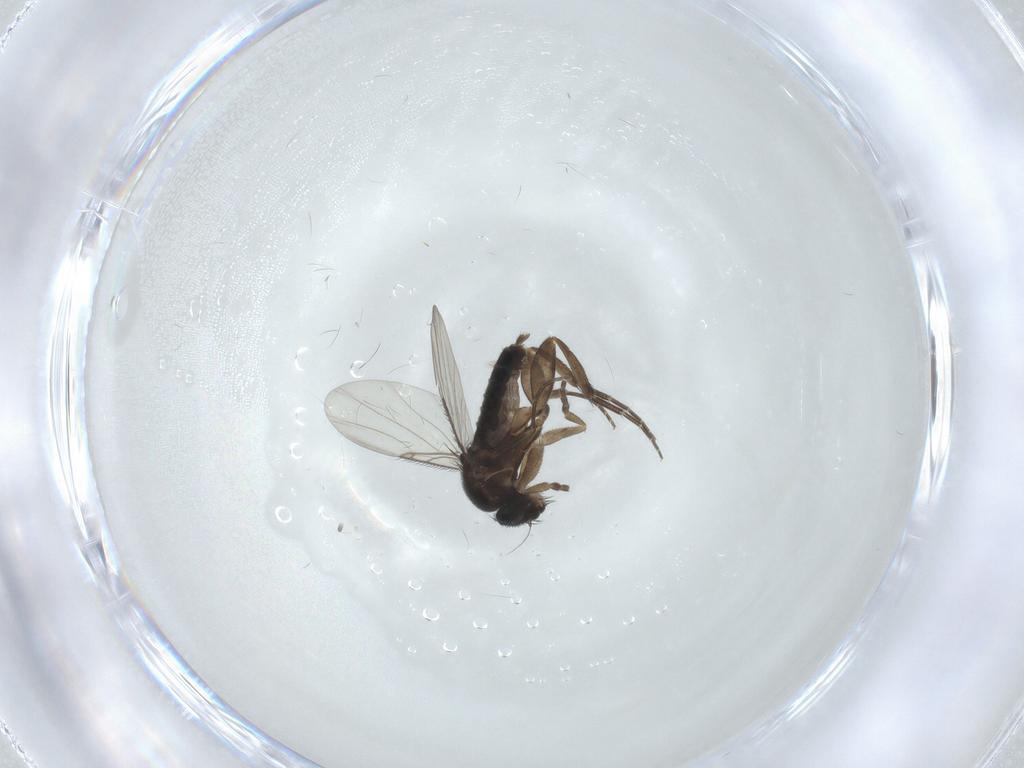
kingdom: Animalia
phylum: Arthropoda
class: Insecta
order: Diptera
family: Phoridae
